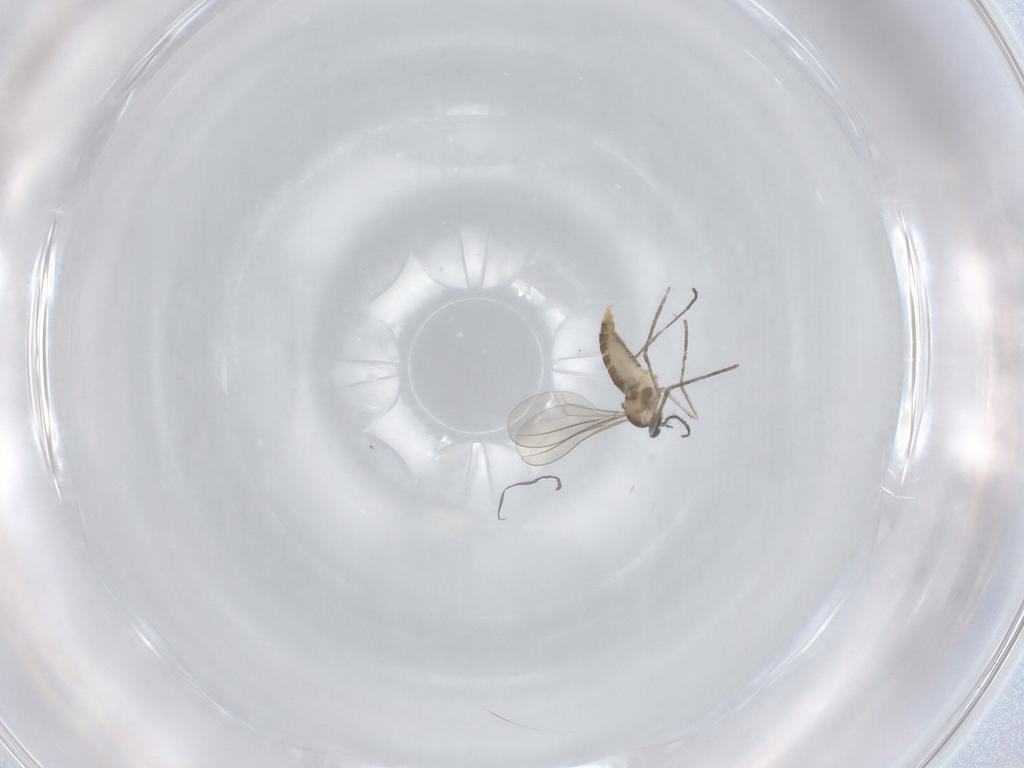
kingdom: Animalia
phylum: Arthropoda
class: Insecta
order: Diptera
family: Cecidomyiidae
